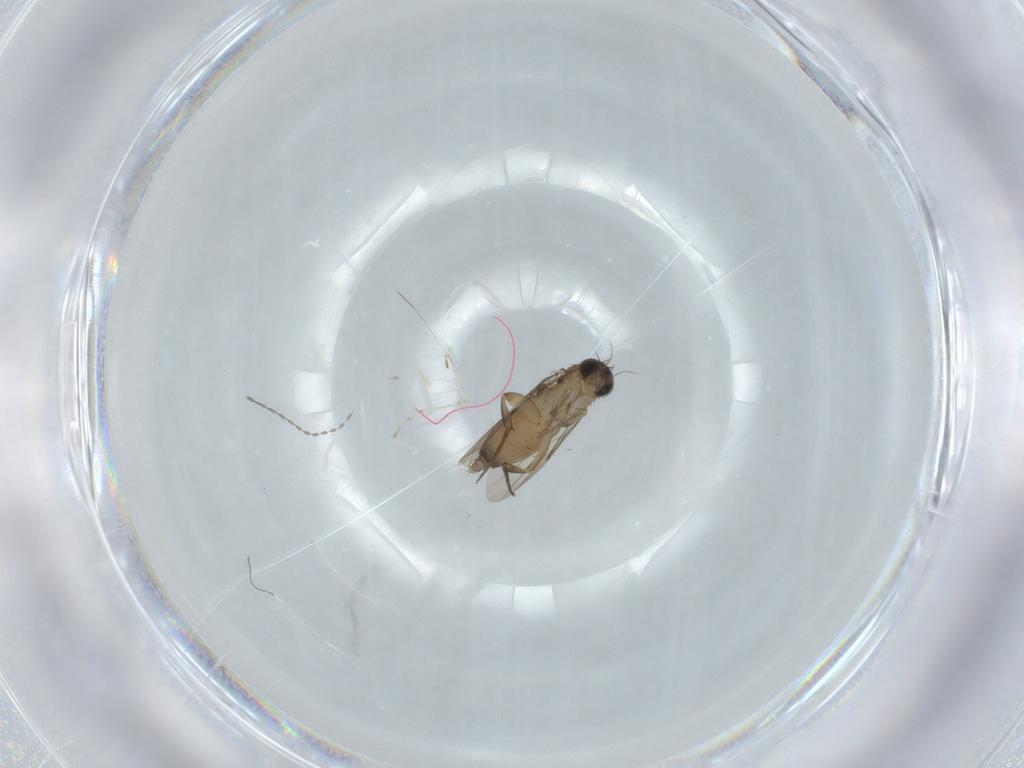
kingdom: Animalia
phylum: Arthropoda
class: Insecta
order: Diptera
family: Phoridae
